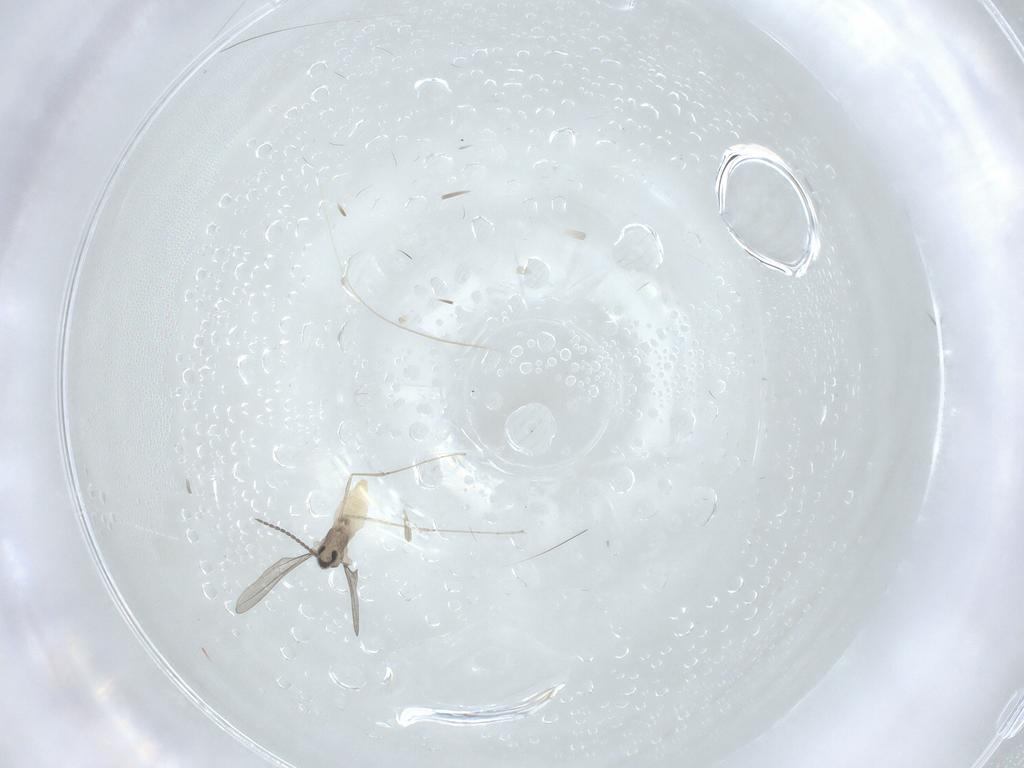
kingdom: Animalia
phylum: Arthropoda
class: Insecta
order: Diptera
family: Cecidomyiidae
